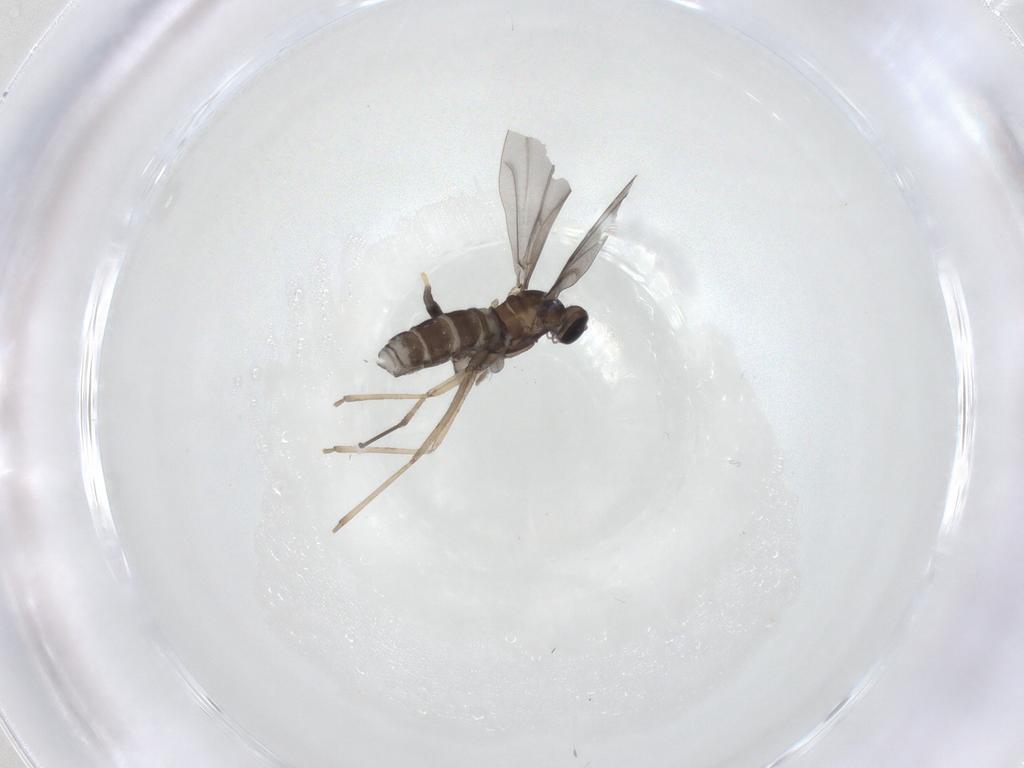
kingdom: Animalia
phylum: Arthropoda
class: Insecta
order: Diptera
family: Cecidomyiidae
